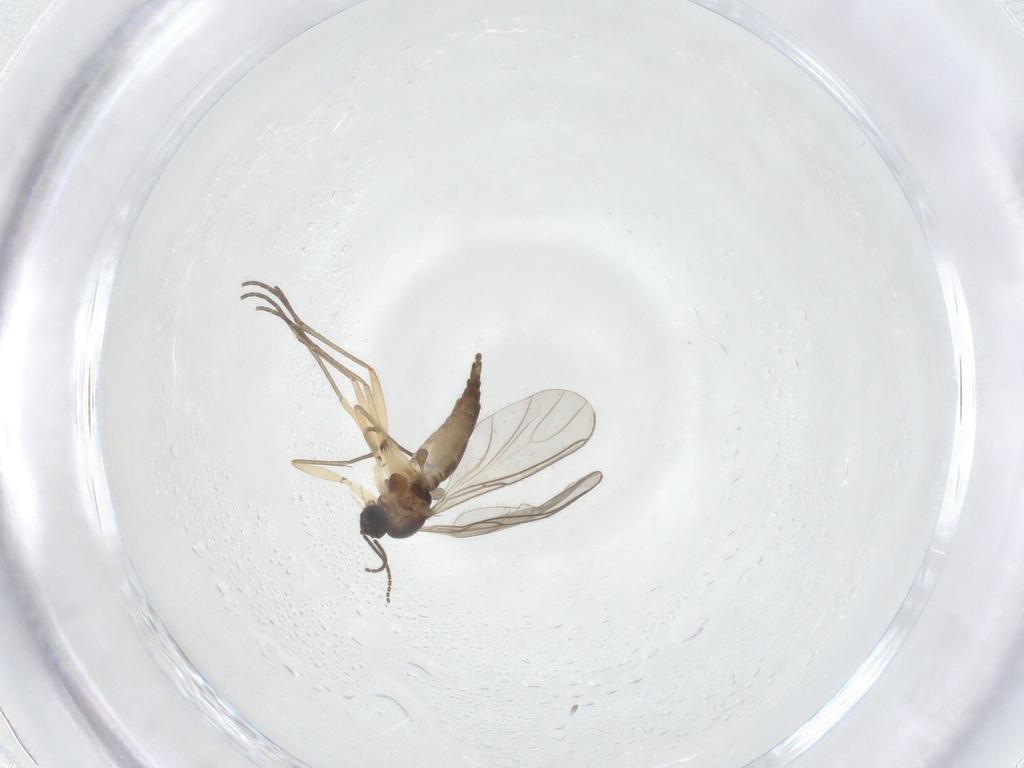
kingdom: Animalia
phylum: Arthropoda
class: Insecta
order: Diptera
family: Sciaridae
